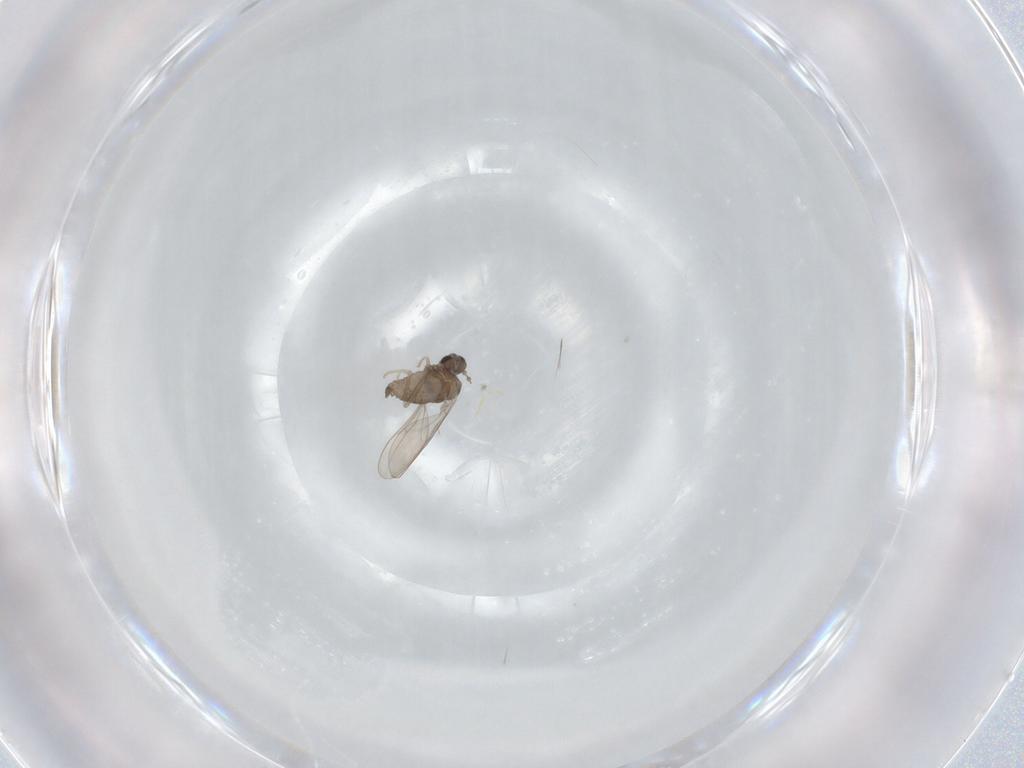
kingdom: Animalia
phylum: Arthropoda
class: Insecta
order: Diptera
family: Cecidomyiidae
